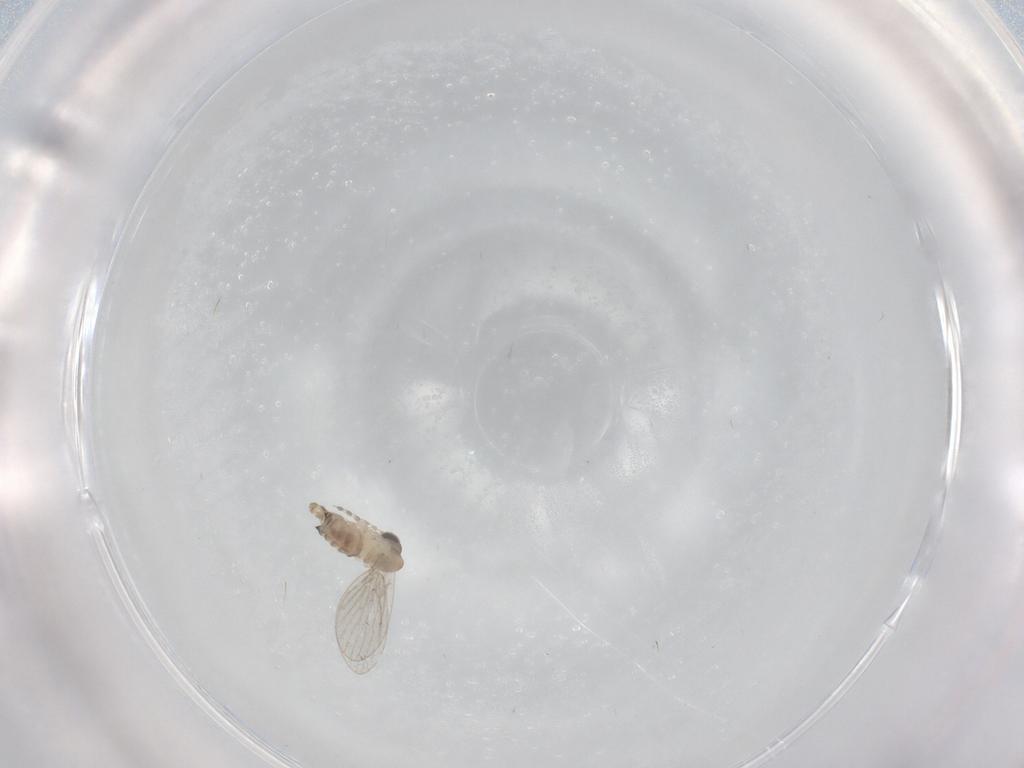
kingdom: Animalia
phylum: Arthropoda
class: Insecta
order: Diptera
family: Psychodidae
